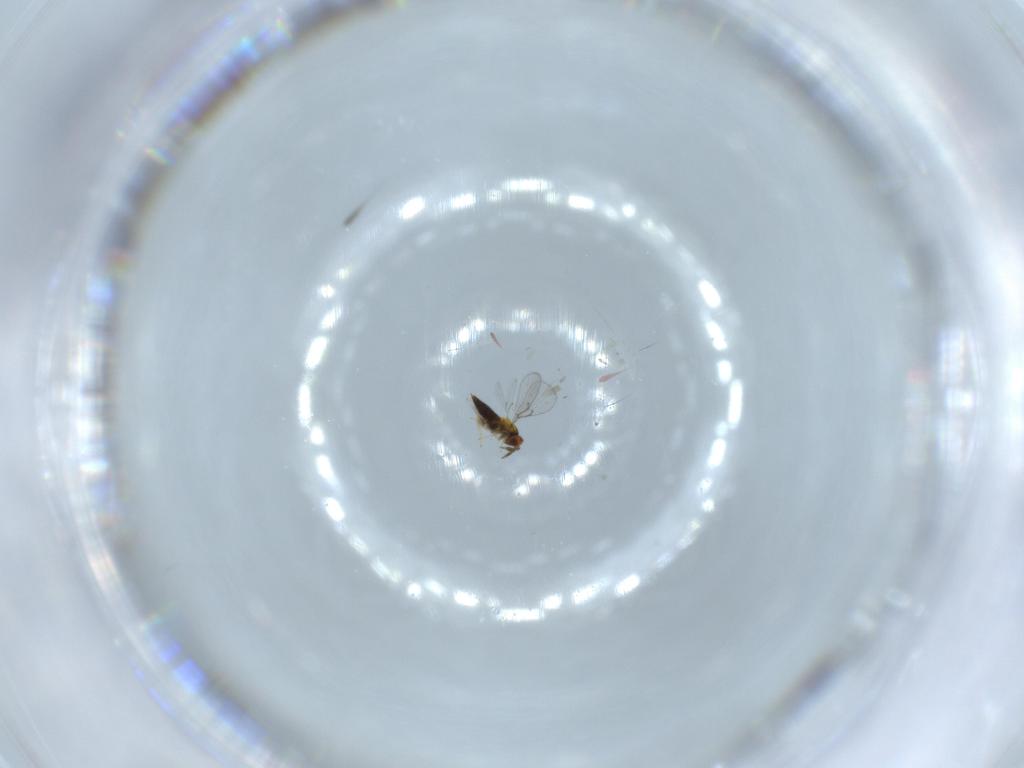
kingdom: Animalia
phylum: Arthropoda
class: Insecta
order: Hymenoptera
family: Trichogrammatidae
